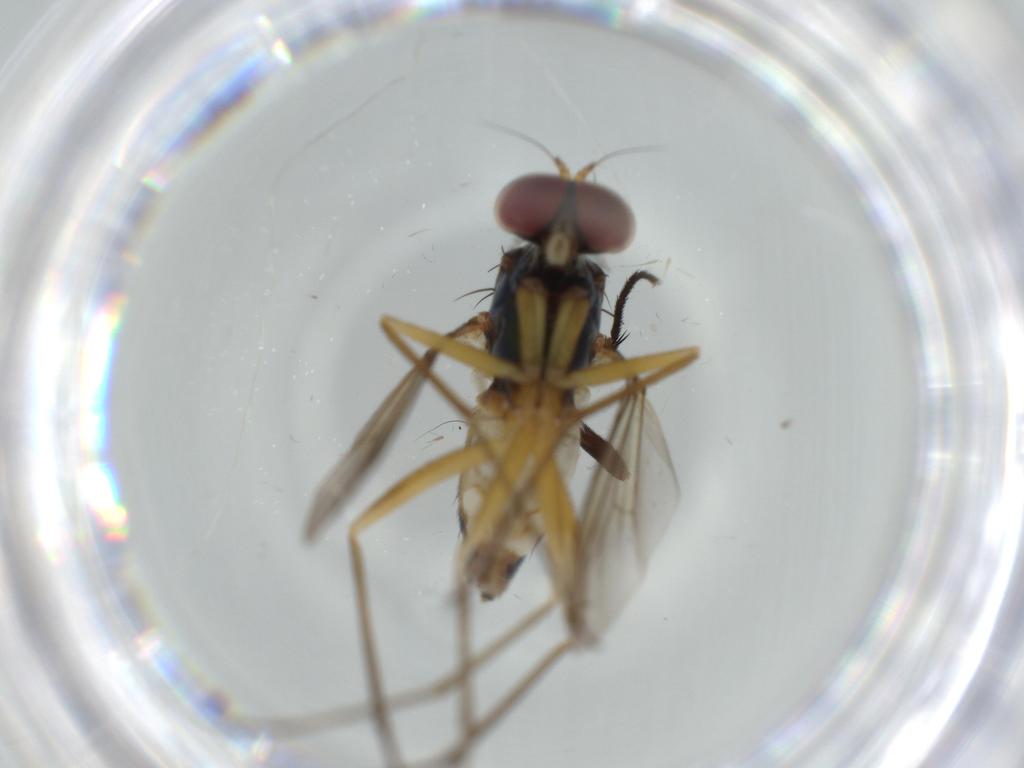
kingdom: Animalia
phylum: Arthropoda
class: Insecta
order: Diptera
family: Dolichopodidae
